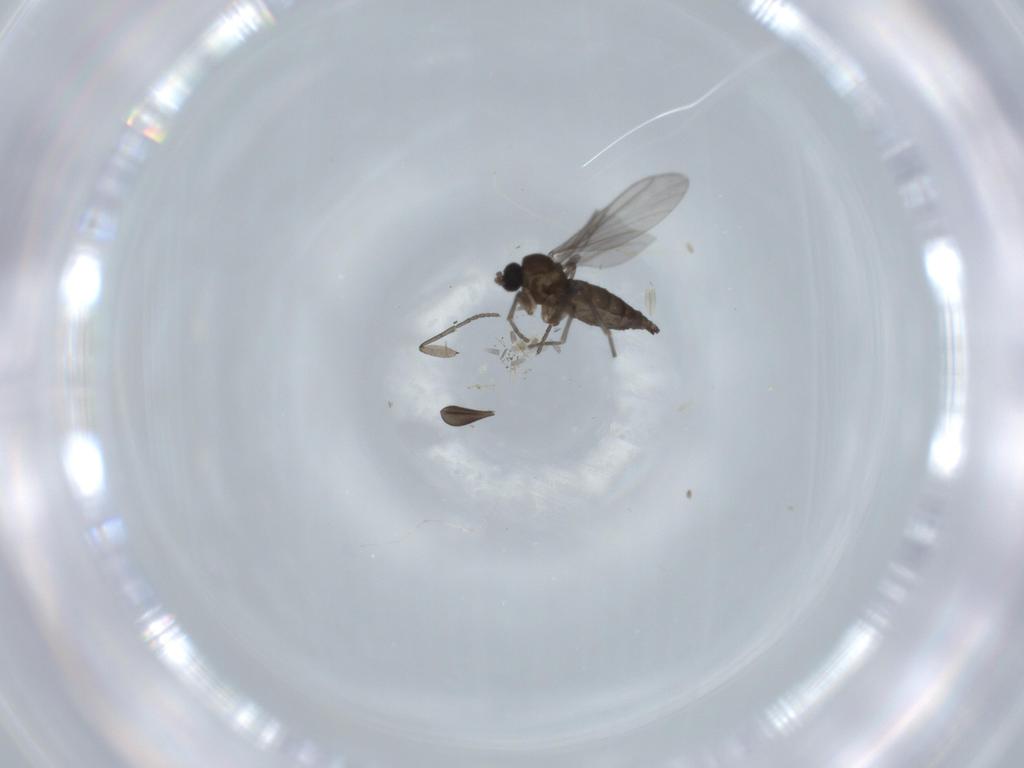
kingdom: Animalia
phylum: Arthropoda
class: Insecta
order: Diptera
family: Cecidomyiidae
